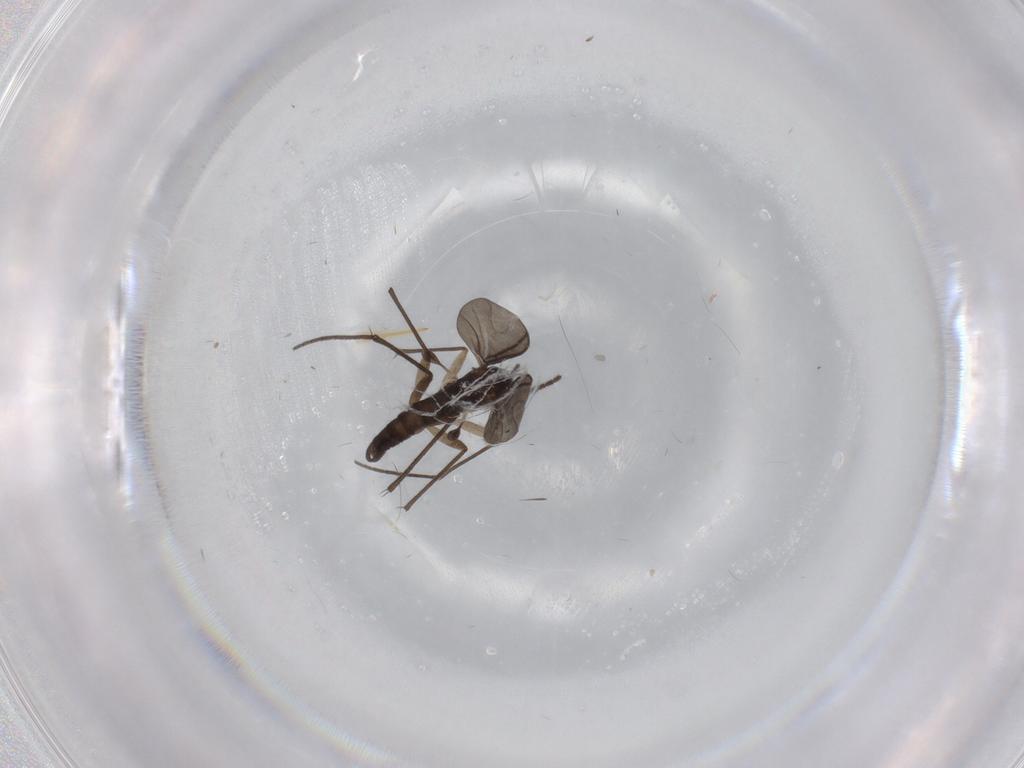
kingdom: Animalia
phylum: Arthropoda
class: Insecta
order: Diptera
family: Sciaridae
